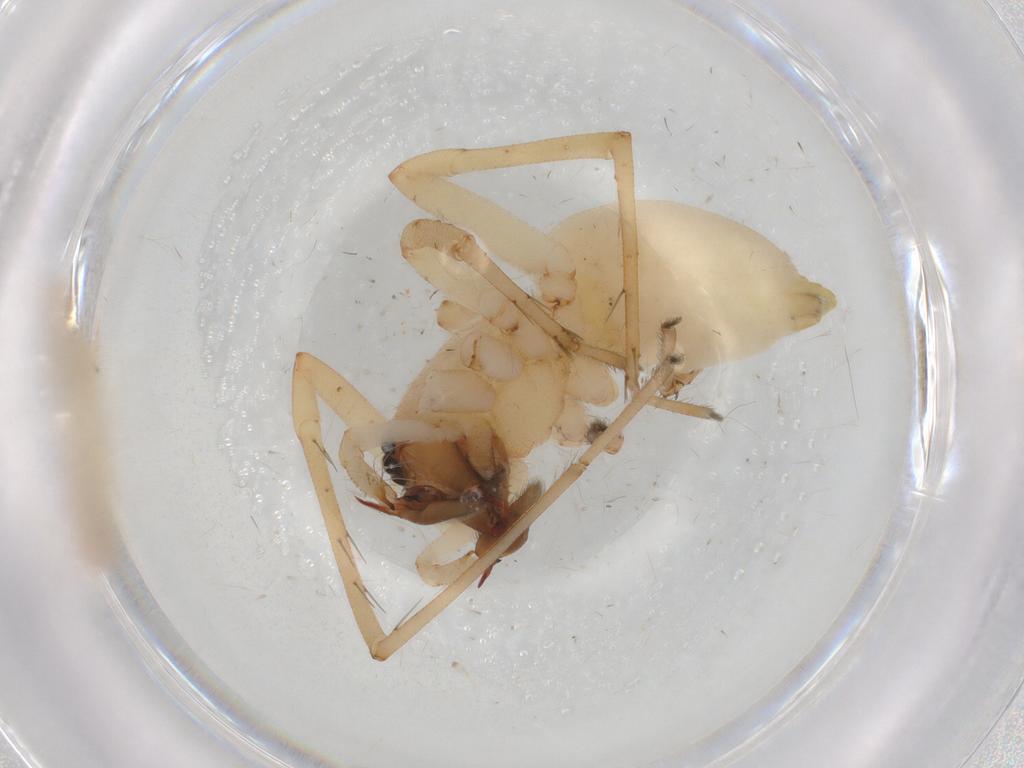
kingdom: Animalia
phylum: Arthropoda
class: Arachnida
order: Araneae
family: Cheiracanthiidae
